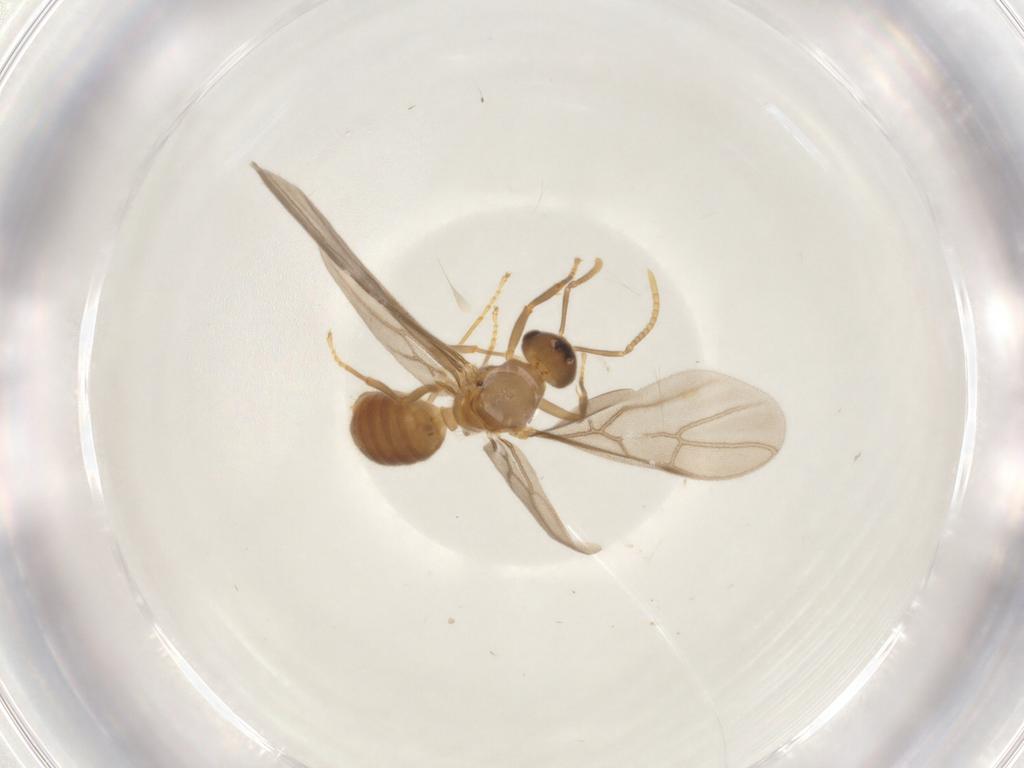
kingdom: Animalia
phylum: Arthropoda
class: Insecta
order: Hymenoptera
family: Formicidae
